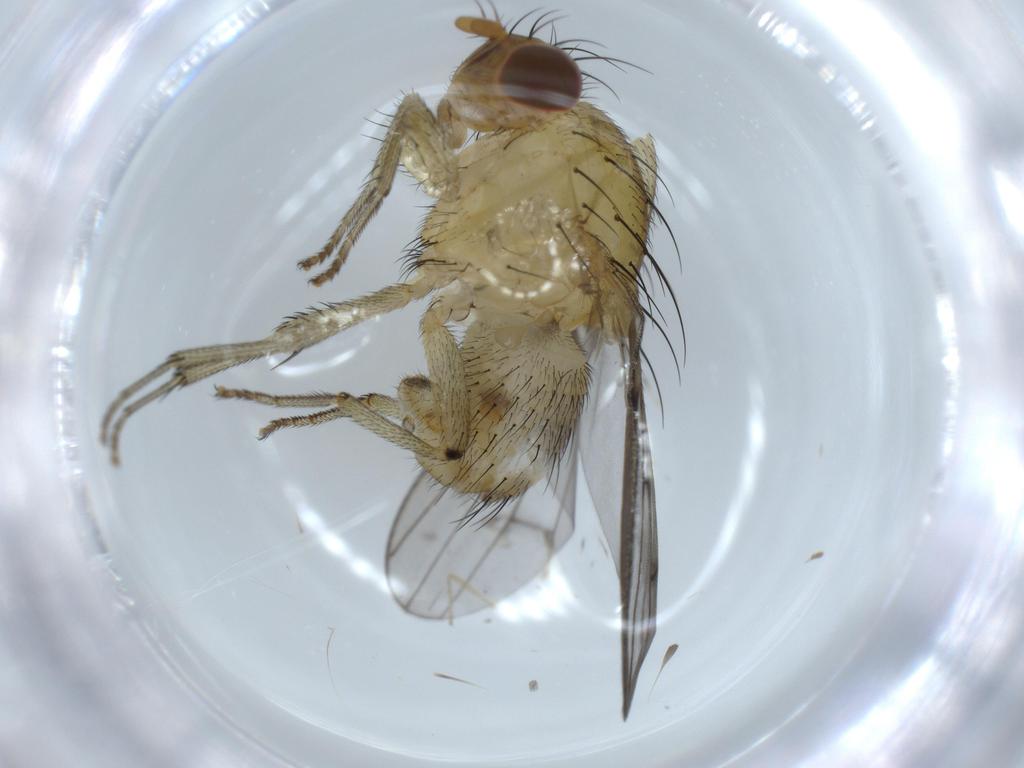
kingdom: Animalia
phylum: Arthropoda
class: Insecta
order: Diptera
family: Chironomidae
